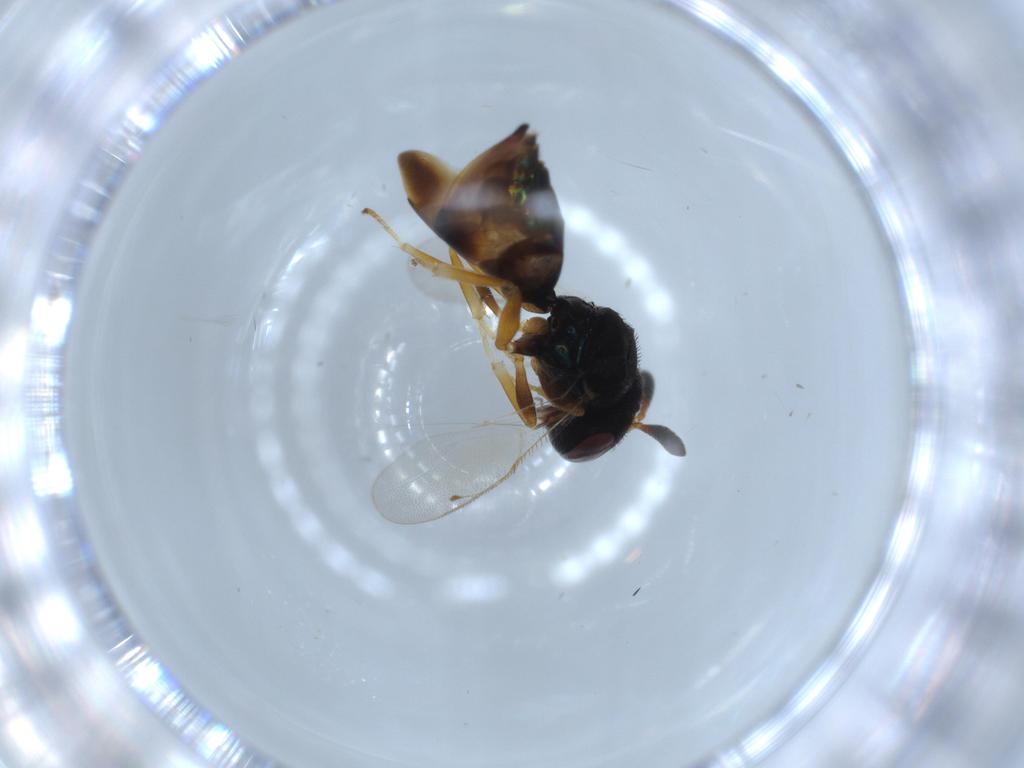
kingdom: Animalia
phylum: Arthropoda
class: Insecta
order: Hymenoptera
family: Agaonidae
